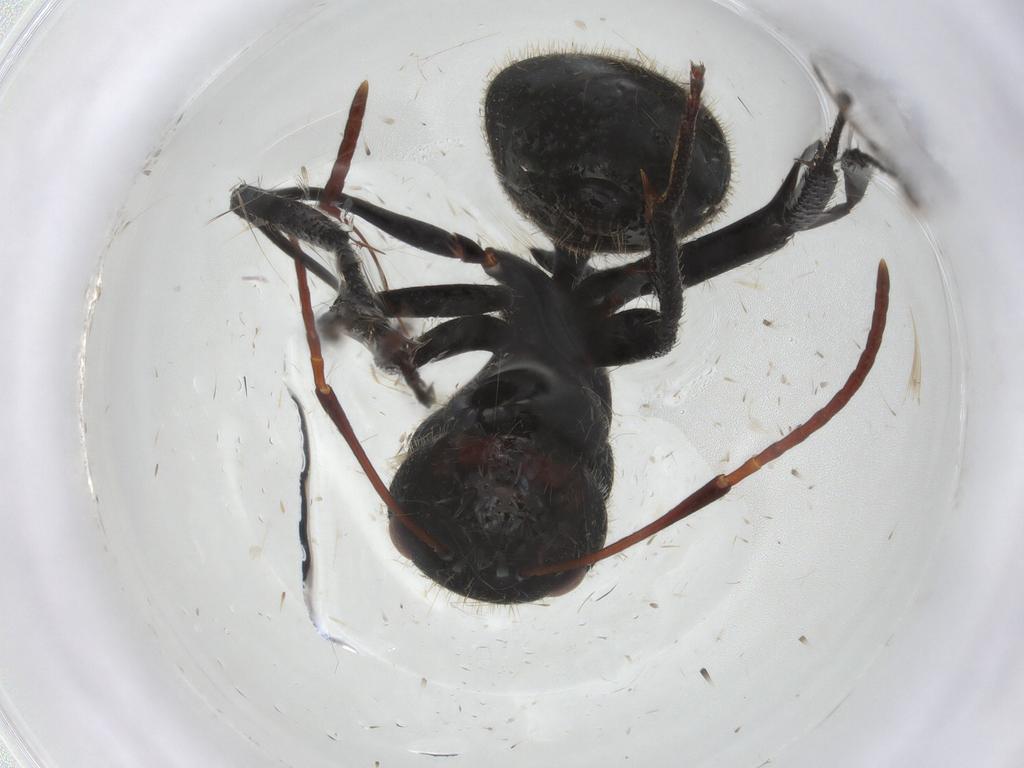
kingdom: Animalia
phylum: Arthropoda
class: Insecta
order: Hymenoptera
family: Formicidae
